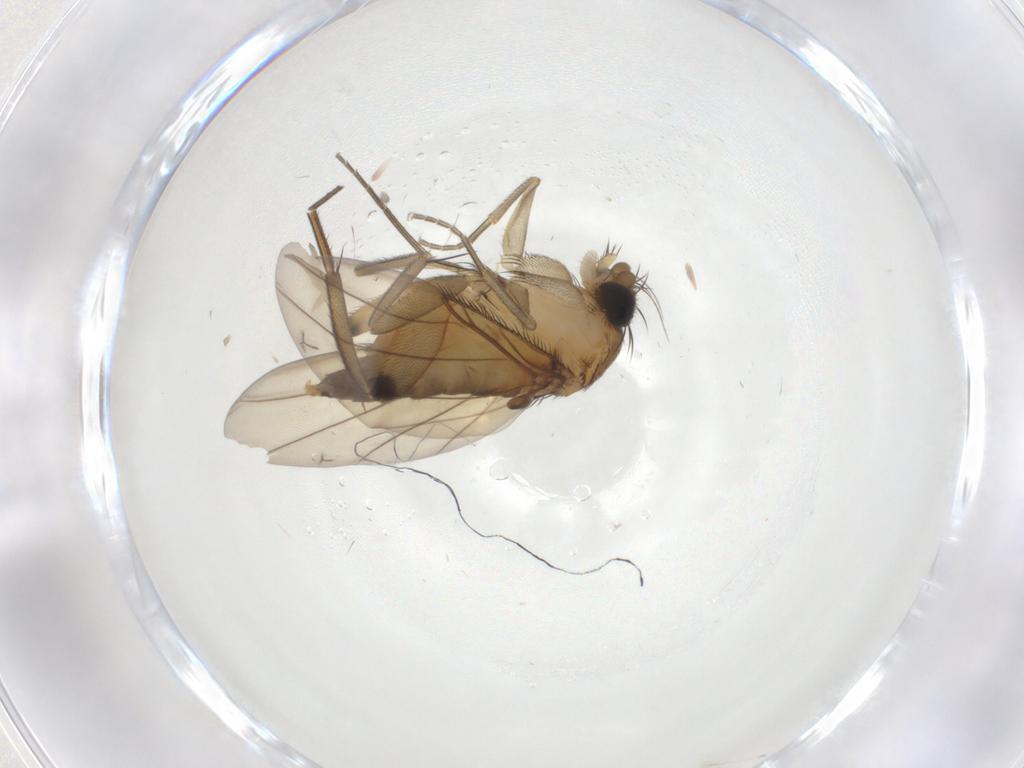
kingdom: Animalia
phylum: Arthropoda
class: Insecta
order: Diptera
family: Phoridae
